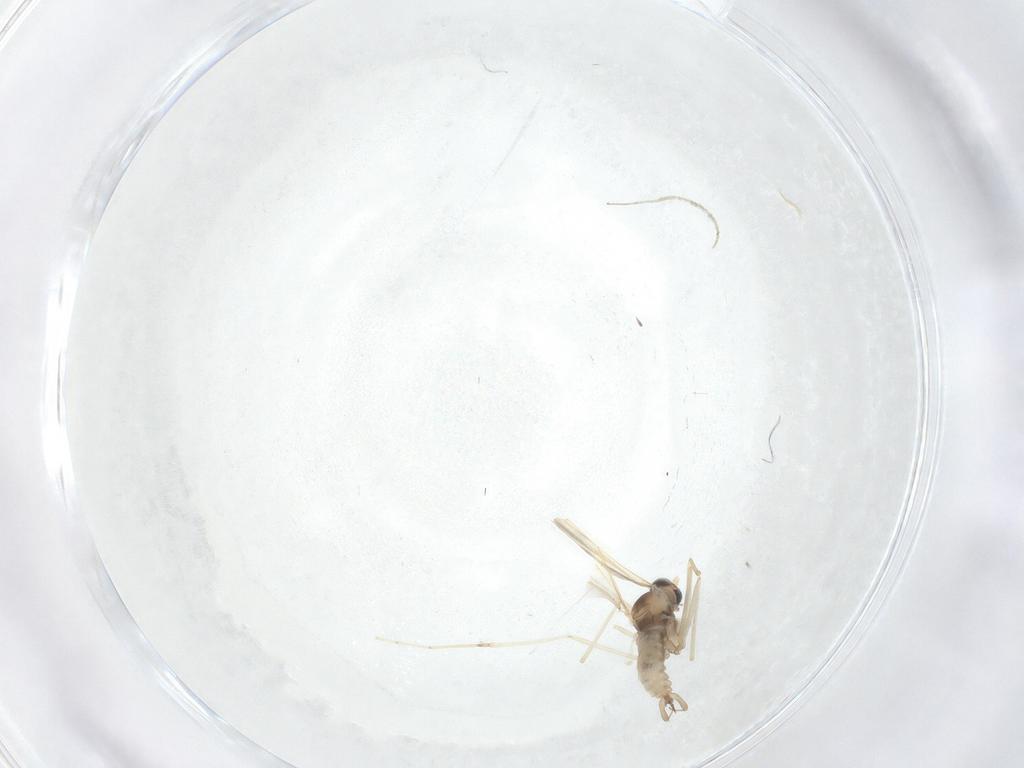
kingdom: Animalia
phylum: Arthropoda
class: Insecta
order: Diptera
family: Cecidomyiidae
